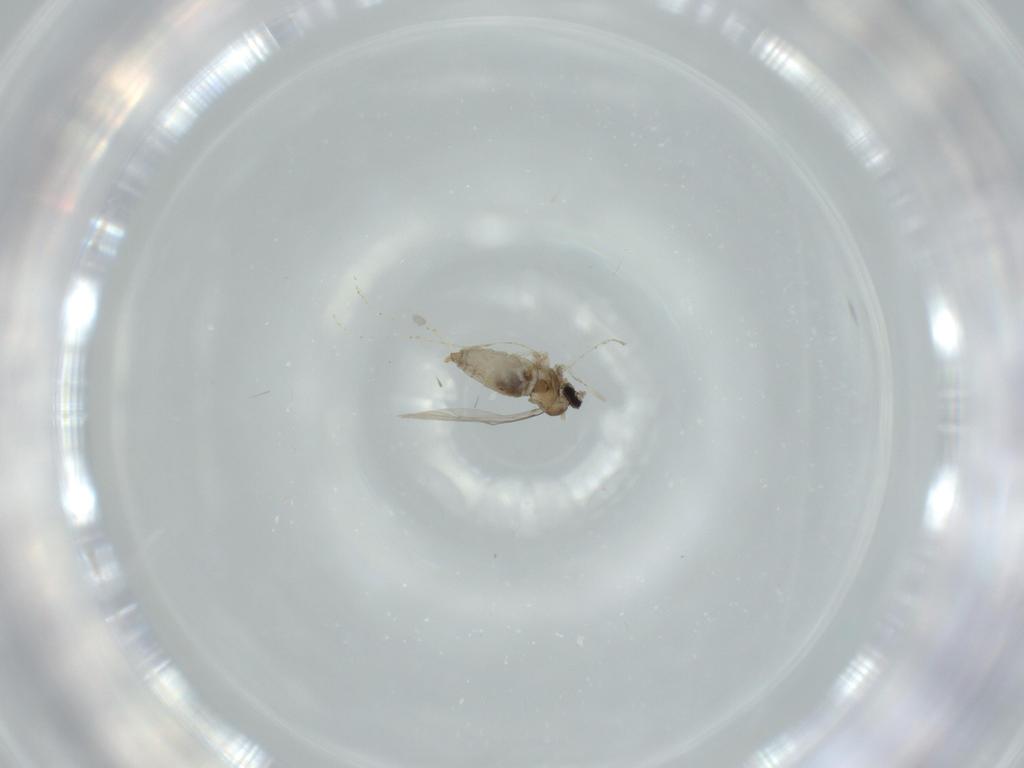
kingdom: Animalia
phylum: Arthropoda
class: Insecta
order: Diptera
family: Cecidomyiidae
